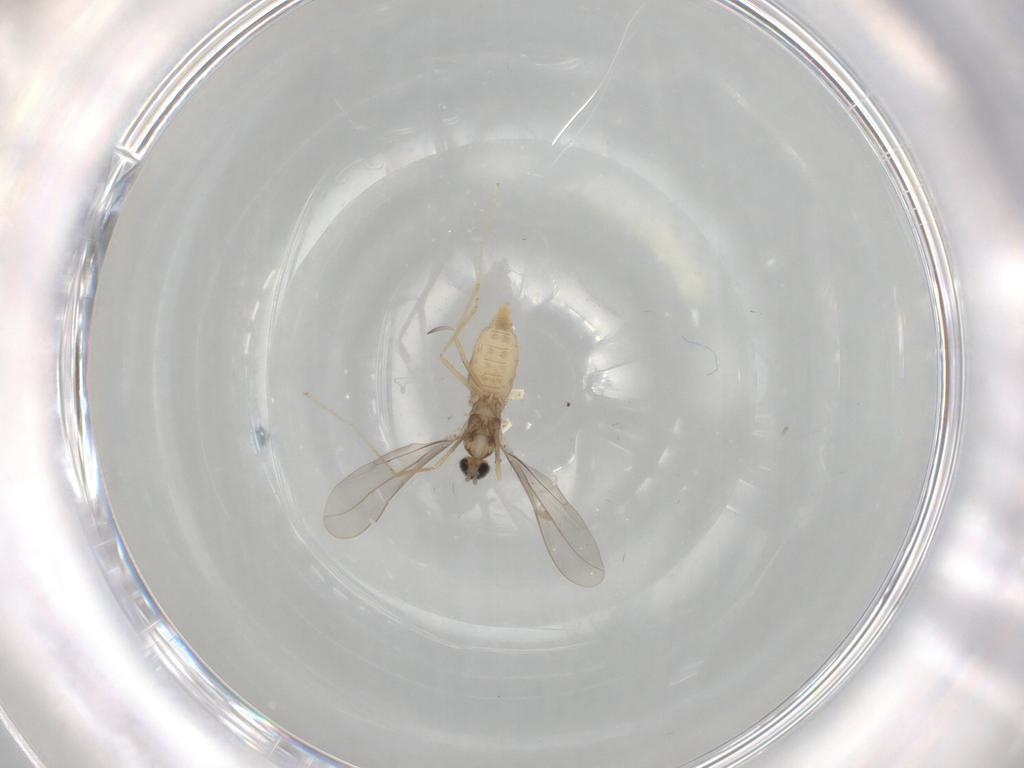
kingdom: Animalia
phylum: Arthropoda
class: Insecta
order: Diptera
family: Cecidomyiidae
